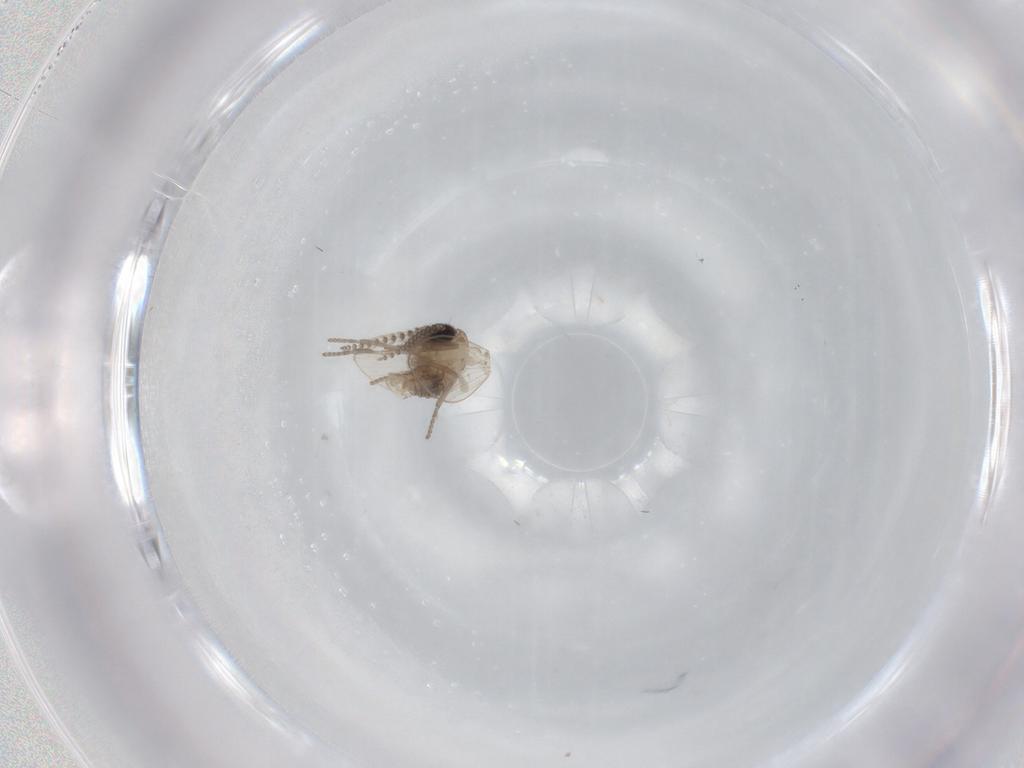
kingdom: Animalia
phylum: Arthropoda
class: Insecta
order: Diptera
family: Psychodidae
